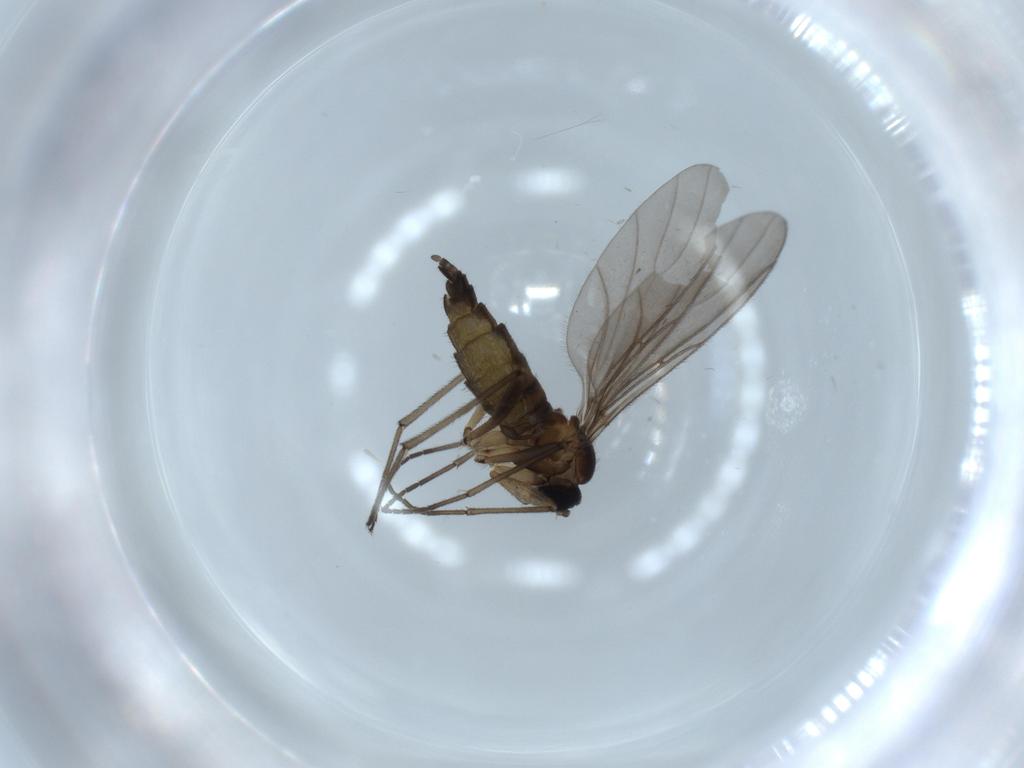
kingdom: Animalia
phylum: Arthropoda
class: Insecta
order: Diptera
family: Sciaridae
